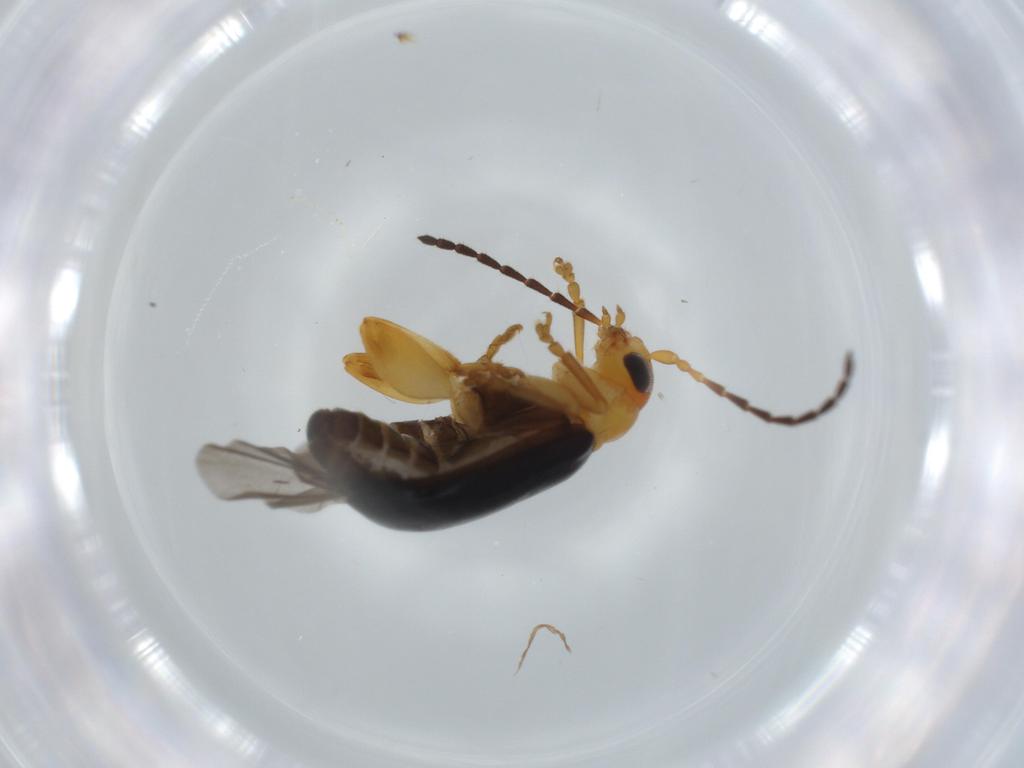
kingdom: Animalia
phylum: Arthropoda
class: Insecta
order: Coleoptera
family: Chrysomelidae
